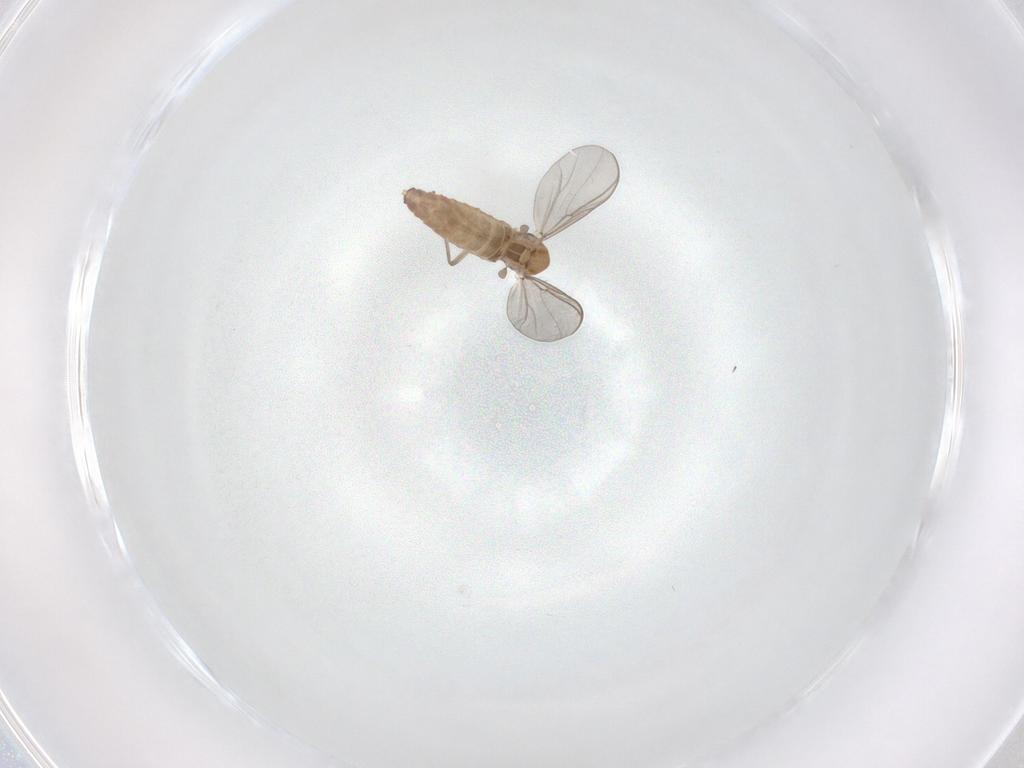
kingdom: Animalia
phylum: Arthropoda
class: Insecta
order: Diptera
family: Chironomidae
